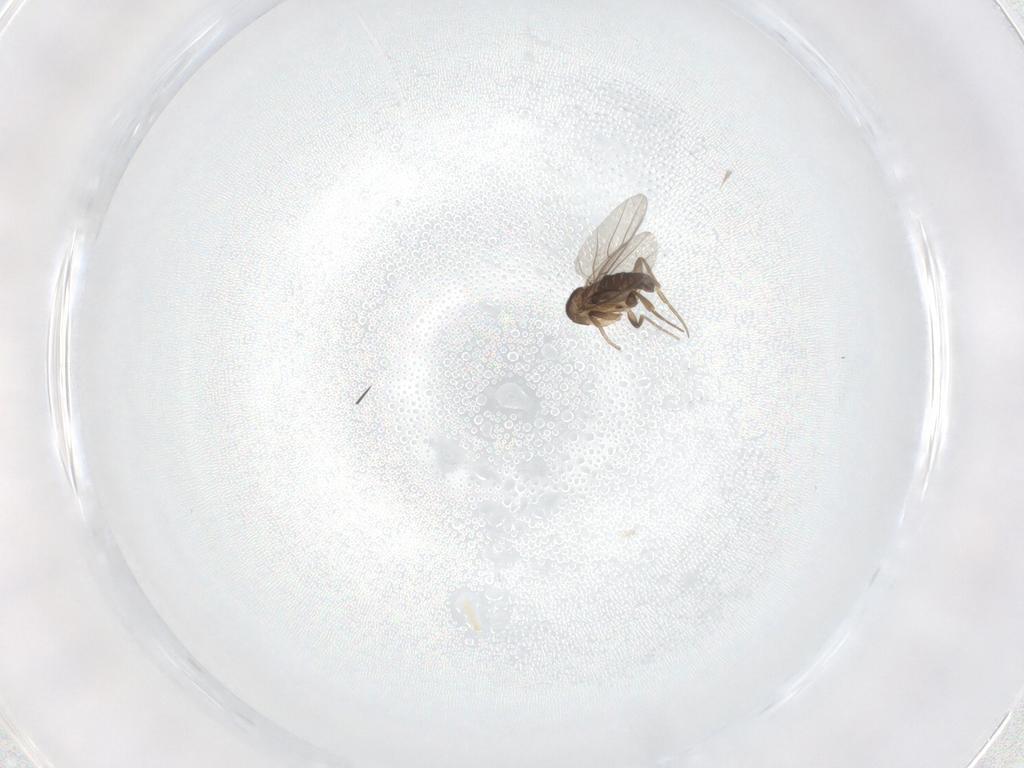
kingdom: Animalia
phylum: Arthropoda
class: Insecta
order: Diptera
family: Phoridae
